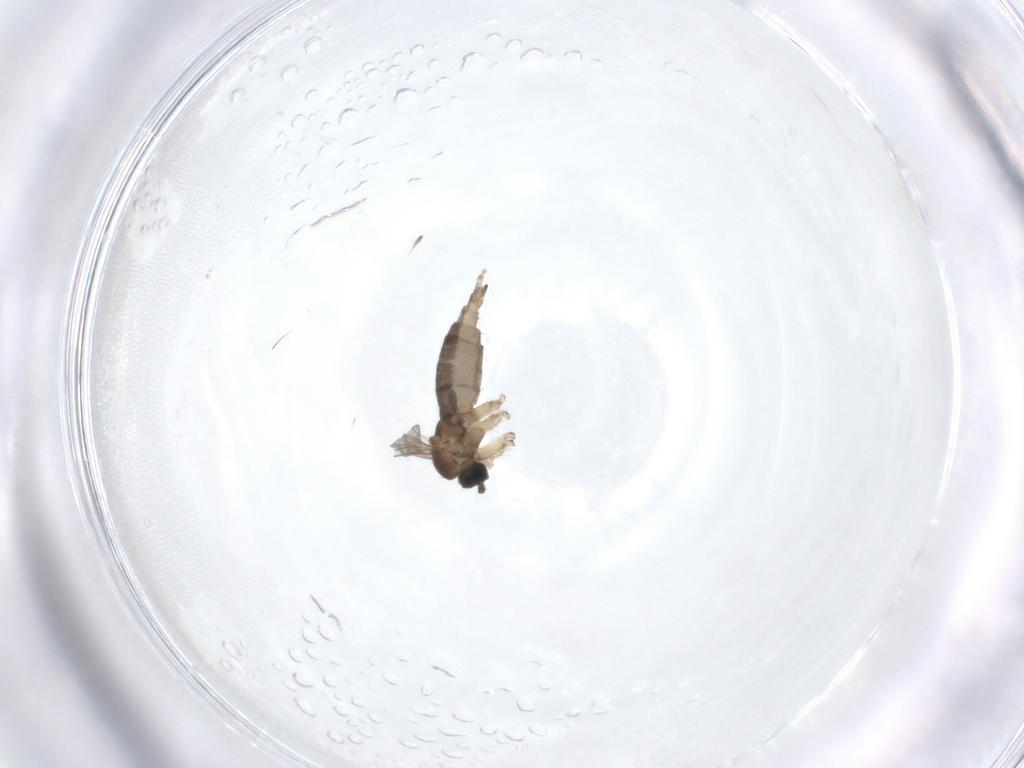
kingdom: Animalia
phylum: Arthropoda
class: Insecta
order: Diptera
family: Sciaridae
